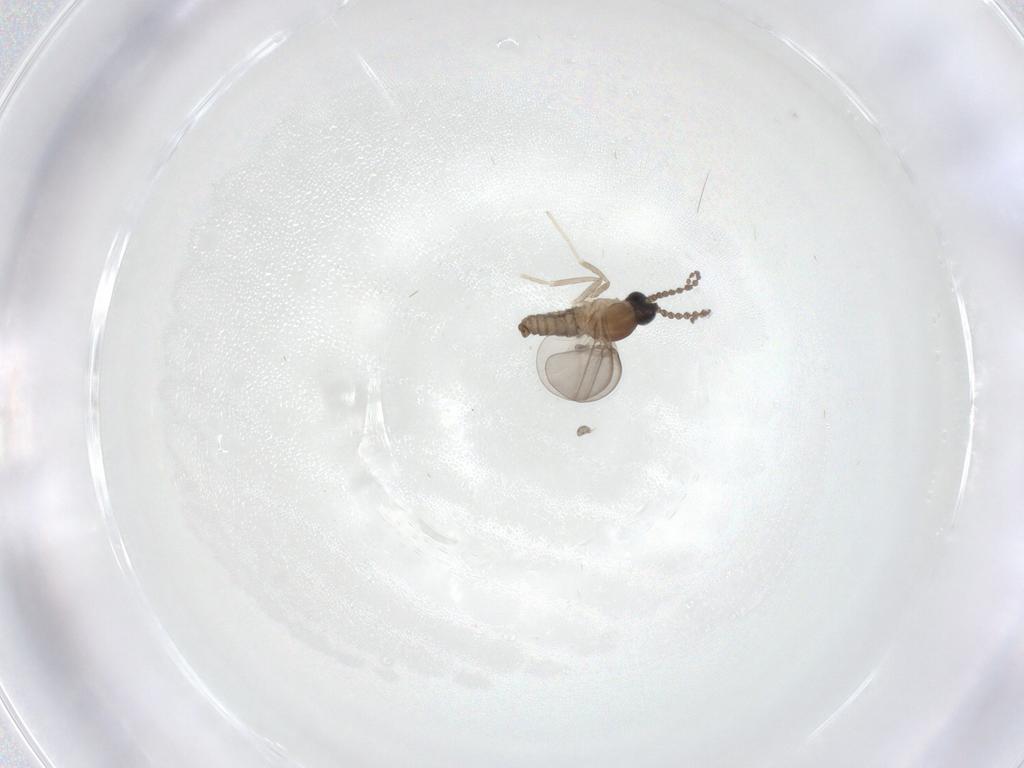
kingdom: Animalia
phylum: Arthropoda
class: Insecta
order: Diptera
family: Cecidomyiidae
